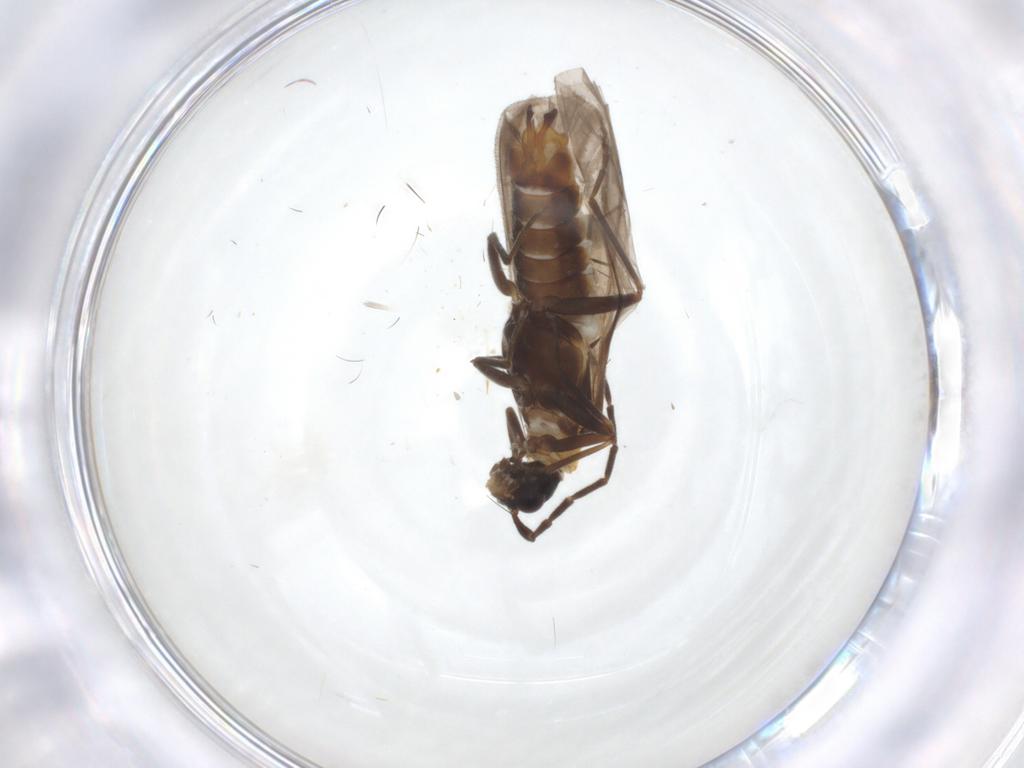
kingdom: Animalia
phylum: Arthropoda
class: Insecta
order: Coleoptera
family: Cantharidae
